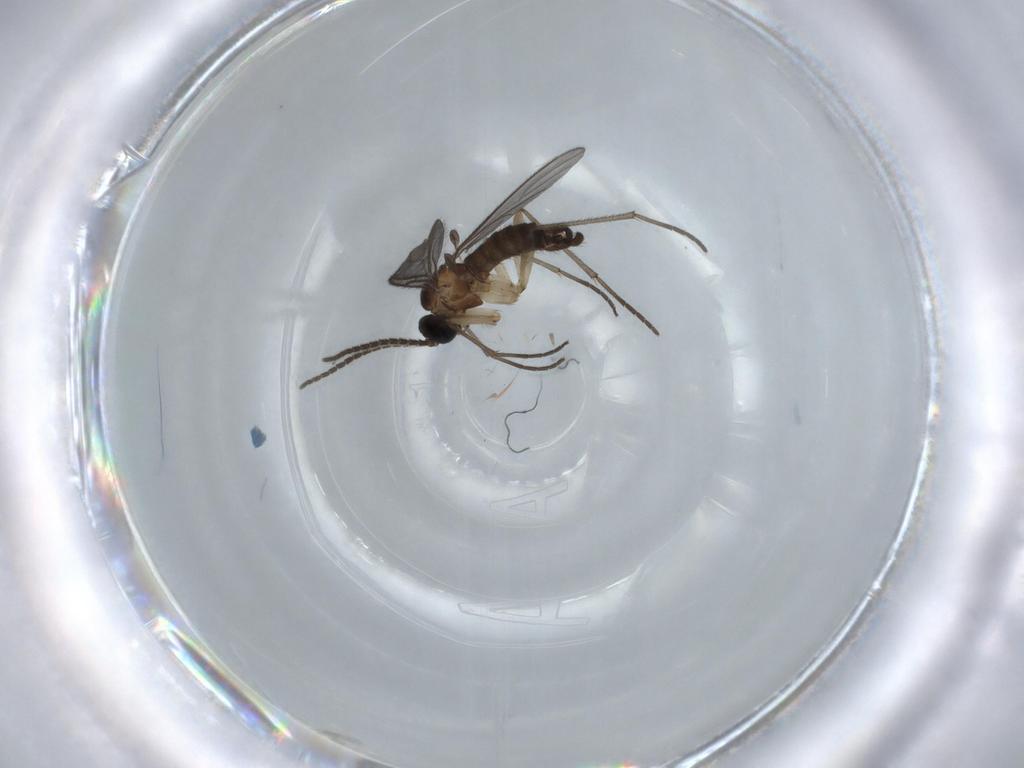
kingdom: Animalia
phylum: Arthropoda
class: Insecta
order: Diptera
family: Sciaridae
